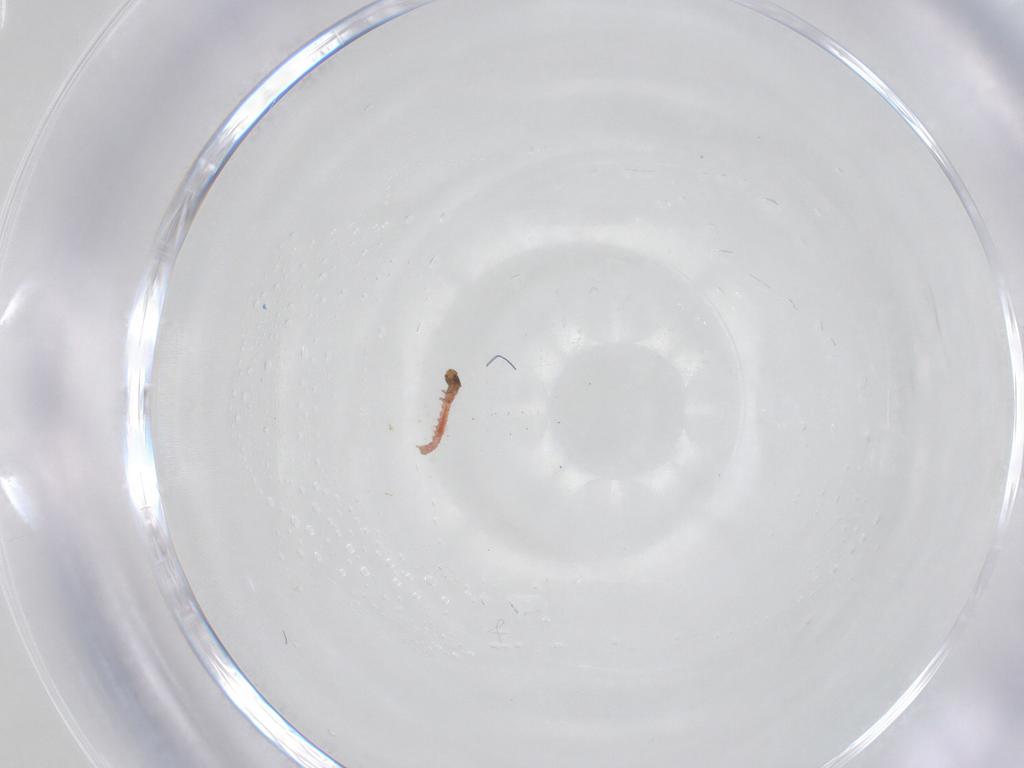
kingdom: Animalia
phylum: Arthropoda
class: Insecta
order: Lepidoptera
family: Lecithoceridae
